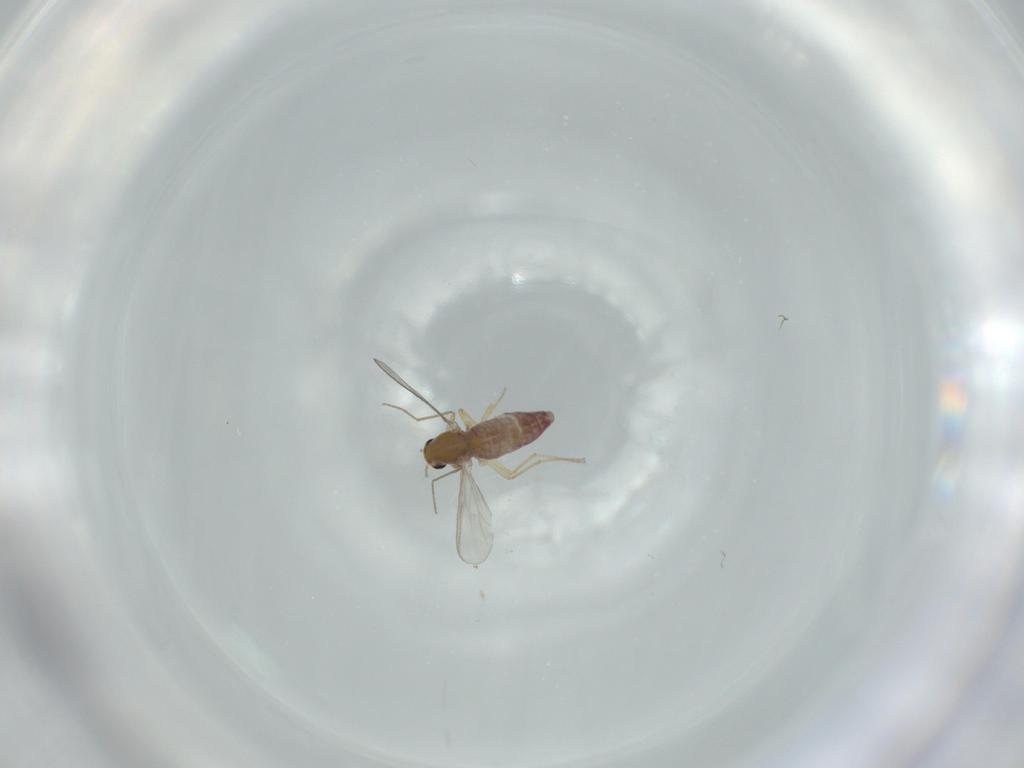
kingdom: Animalia
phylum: Arthropoda
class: Insecta
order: Diptera
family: Chironomidae
